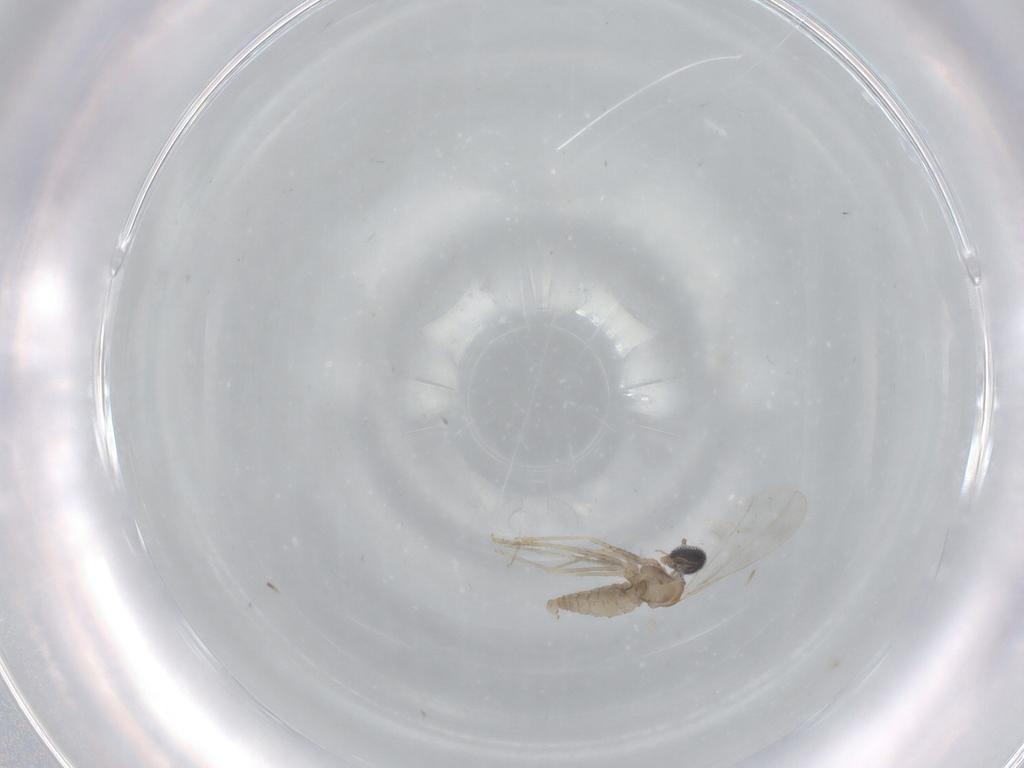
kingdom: Animalia
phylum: Arthropoda
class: Insecta
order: Diptera
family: Cecidomyiidae
